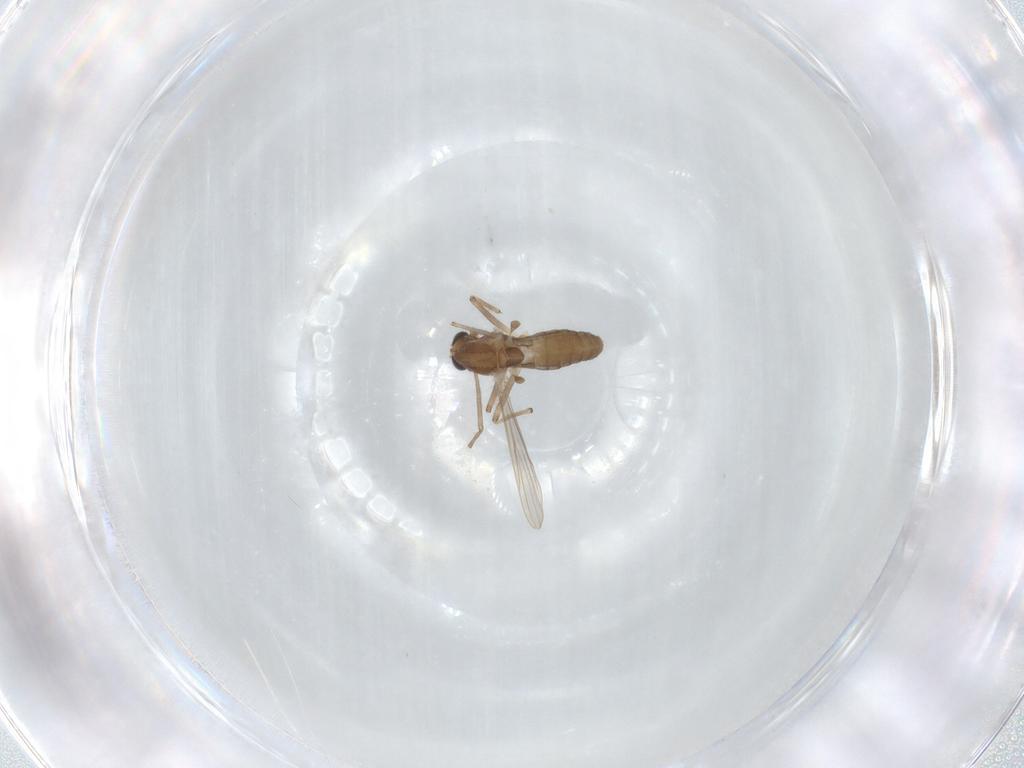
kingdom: Animalia
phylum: Arthropoda
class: Insecta
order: Diptera
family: Chironomidae
